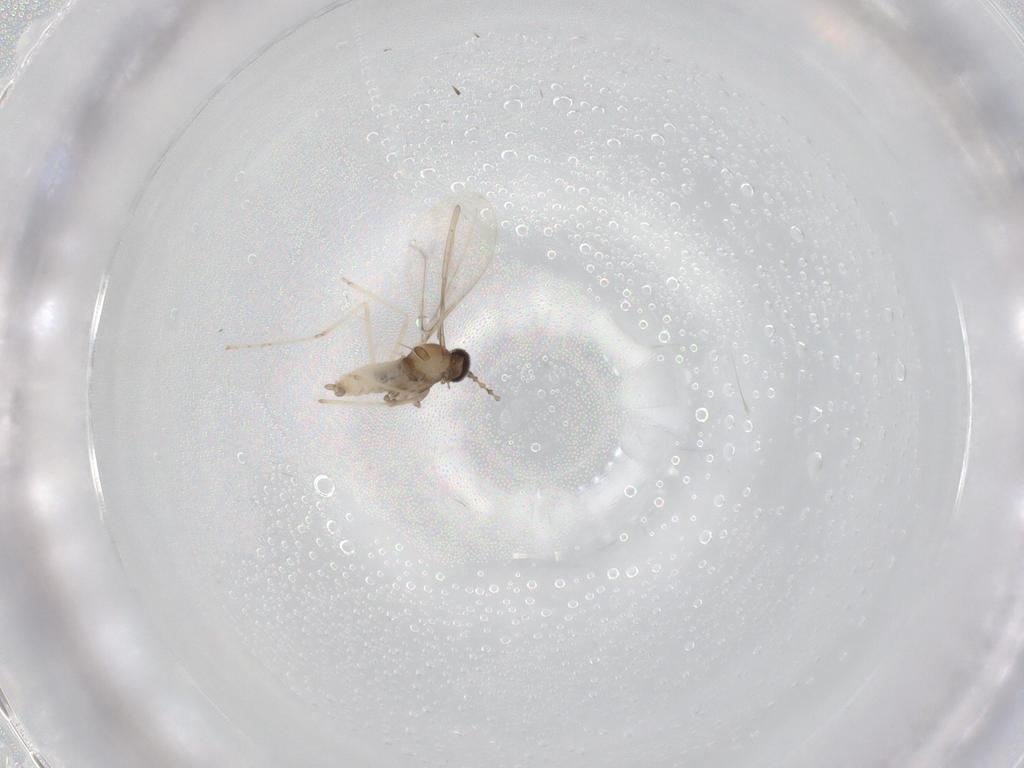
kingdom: Animalia
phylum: Arthropoda
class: Insecta
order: Diptera
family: Cecidomyiidae
